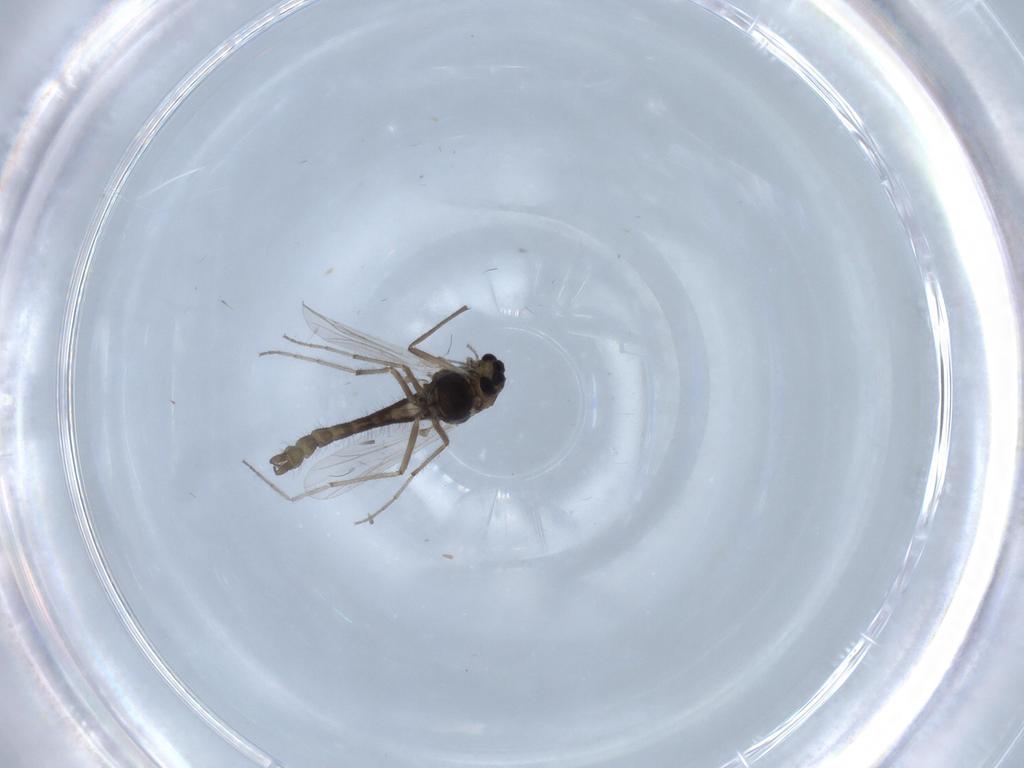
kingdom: Animalia
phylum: Arthropoda
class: Insecta
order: Diptera
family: Chironomidae
